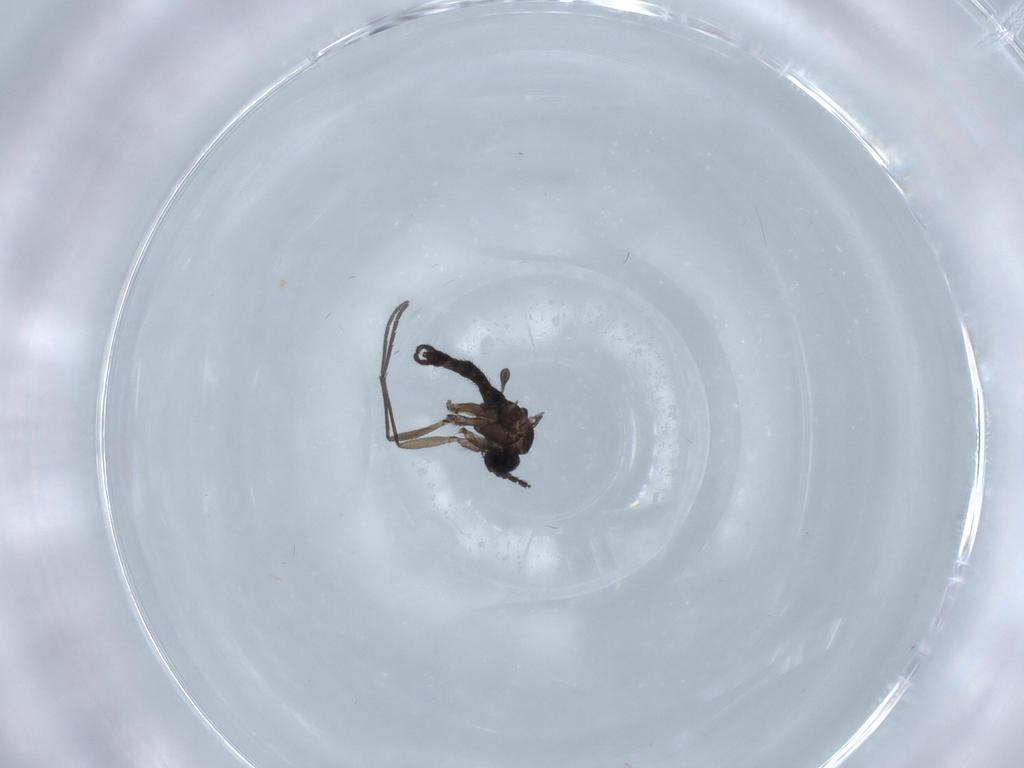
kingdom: Animalia
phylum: Arthropoda
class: Insecta
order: Diptera
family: Sciaridae
